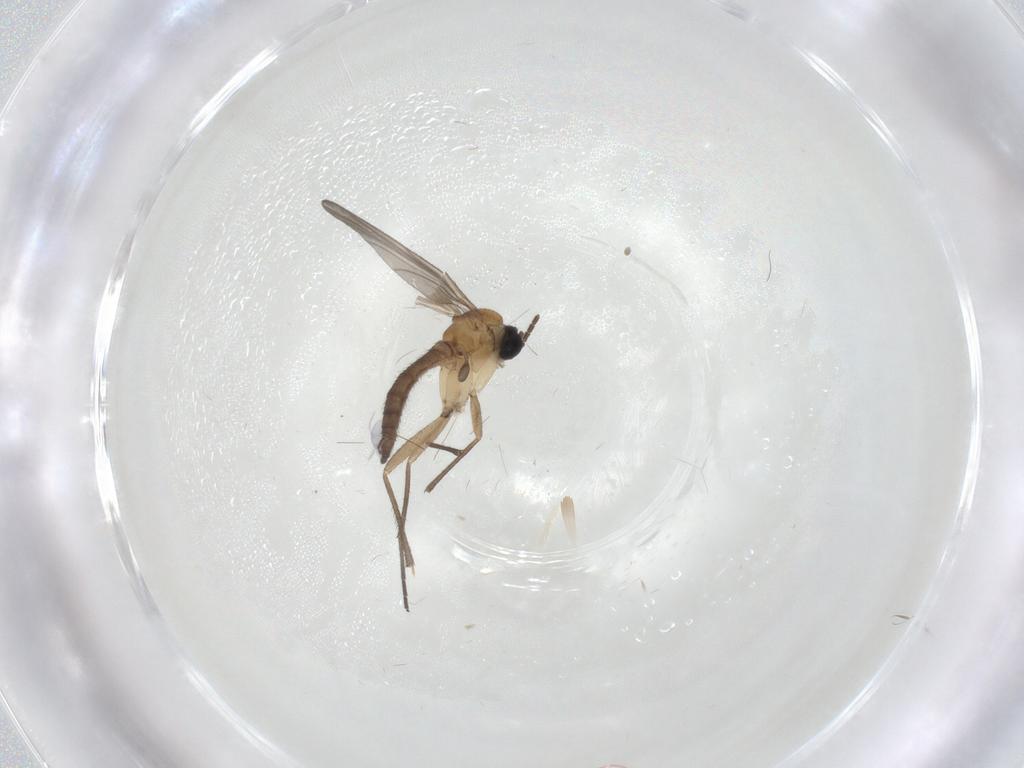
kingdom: Animalia
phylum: Arthropoda
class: Insecta
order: Diptera
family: Sciaridae
